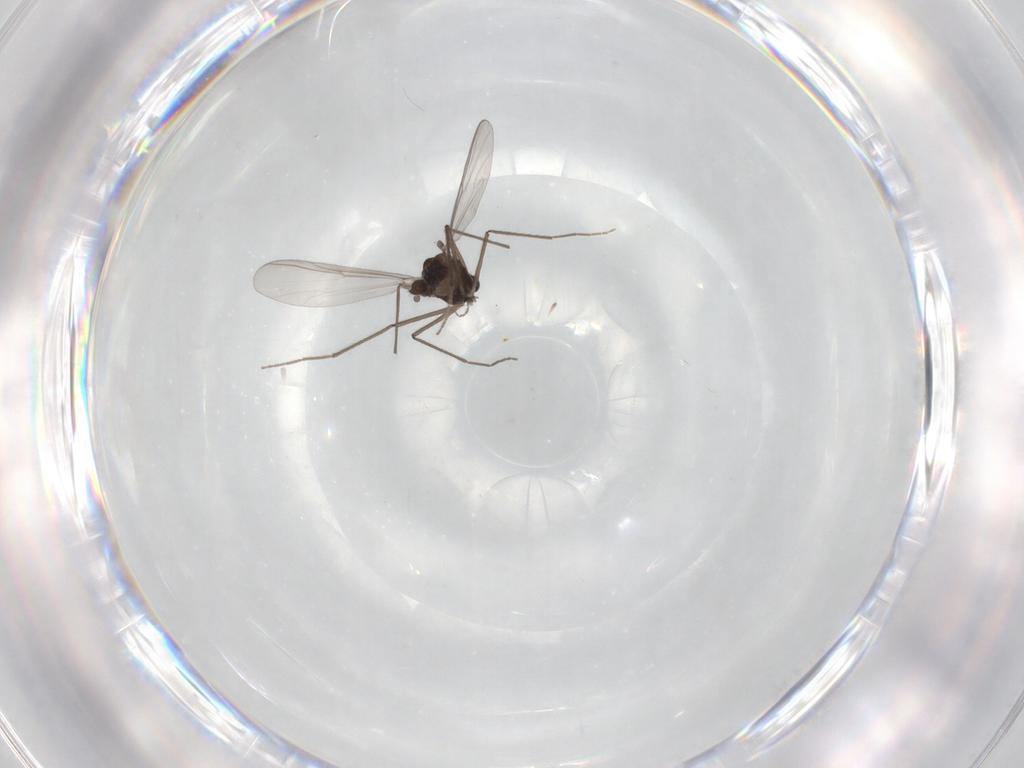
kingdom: Animalia
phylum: Arthropoda
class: Insecta
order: Diptera
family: Chironomidae
